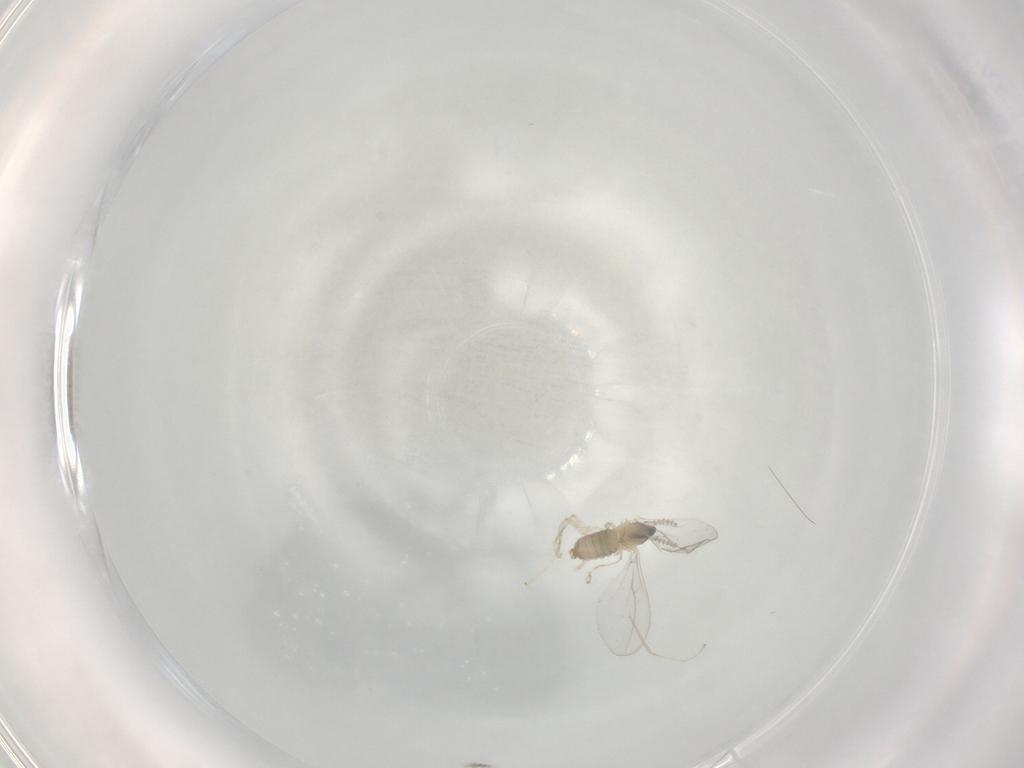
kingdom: Animalia
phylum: Arthropoda
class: Insecta
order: Diptera
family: Cecidomyiidae
